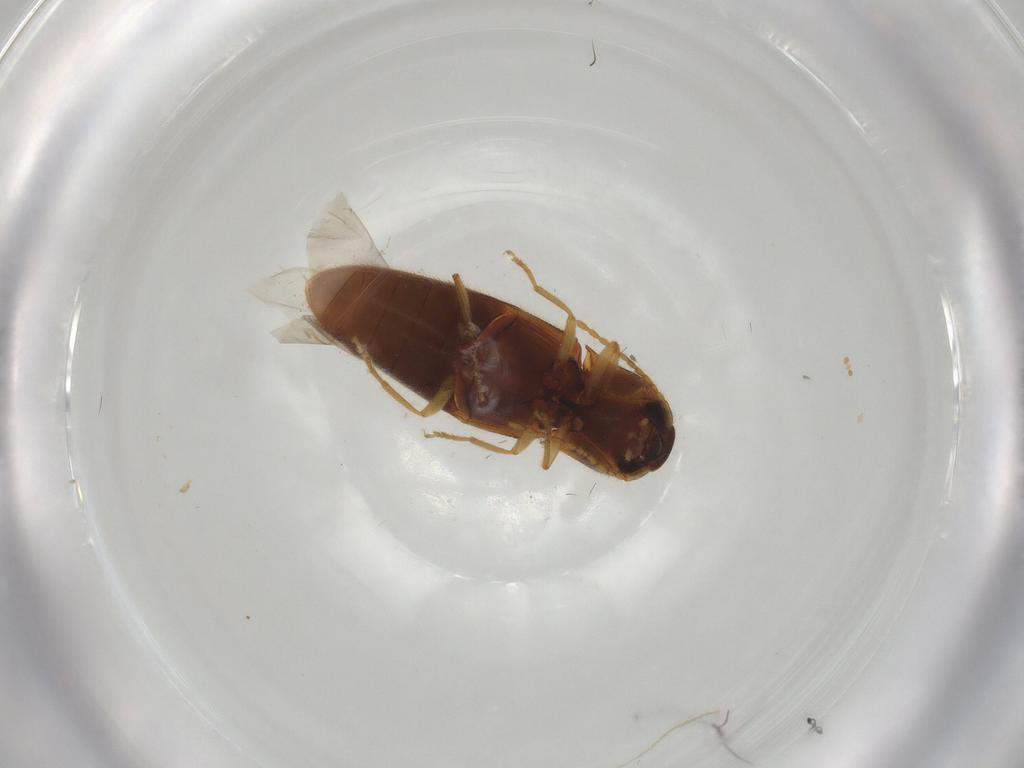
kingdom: Animalia
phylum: Arthropoda
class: Insecta
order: Coleoptera
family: Elateridae
